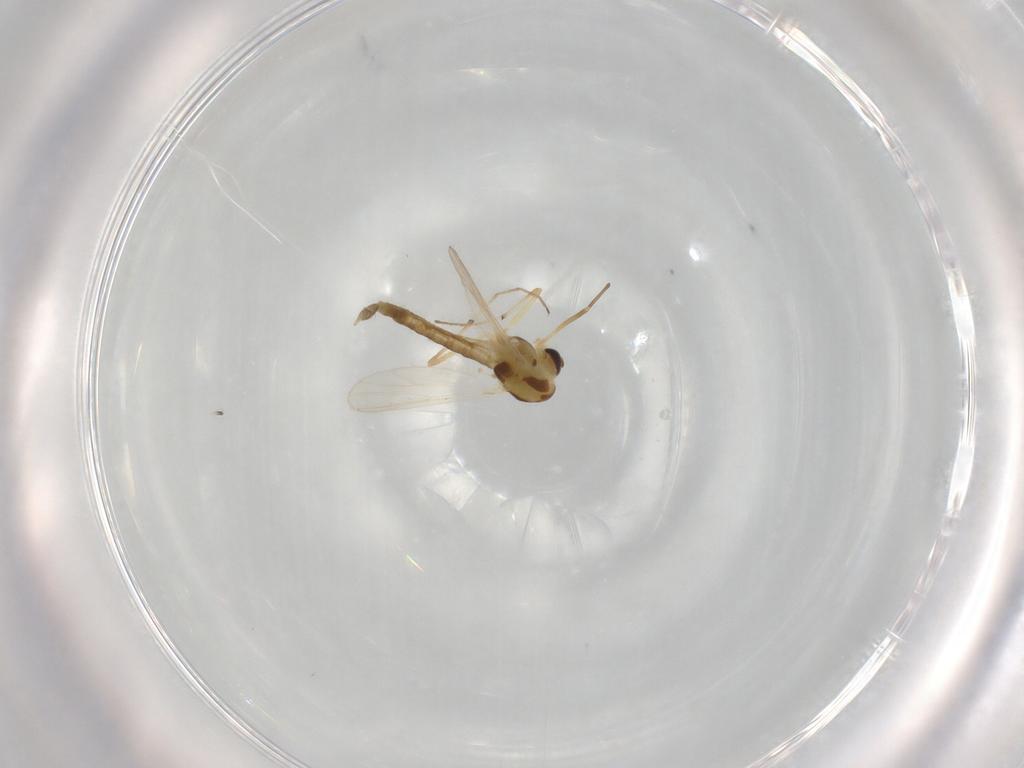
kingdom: Animalia
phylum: Arthropoda
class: Insecta
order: Diptera
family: Chironomidae
